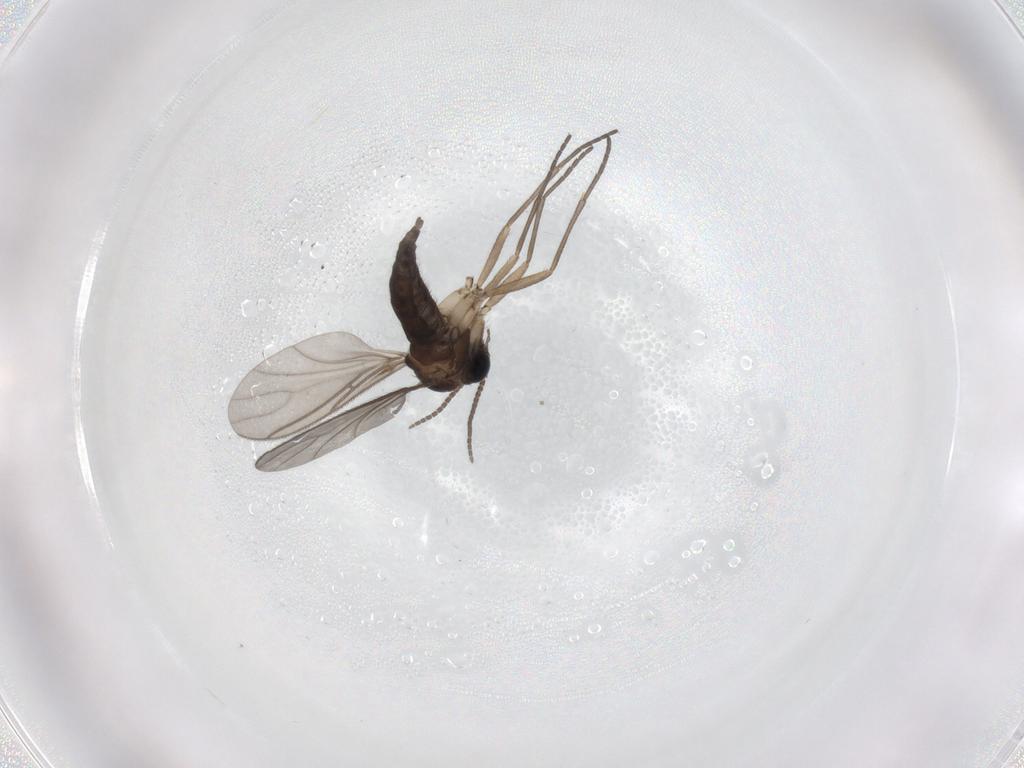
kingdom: Animalia
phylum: Arthropoda
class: Insecta
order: Diptera
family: Sciaridae
